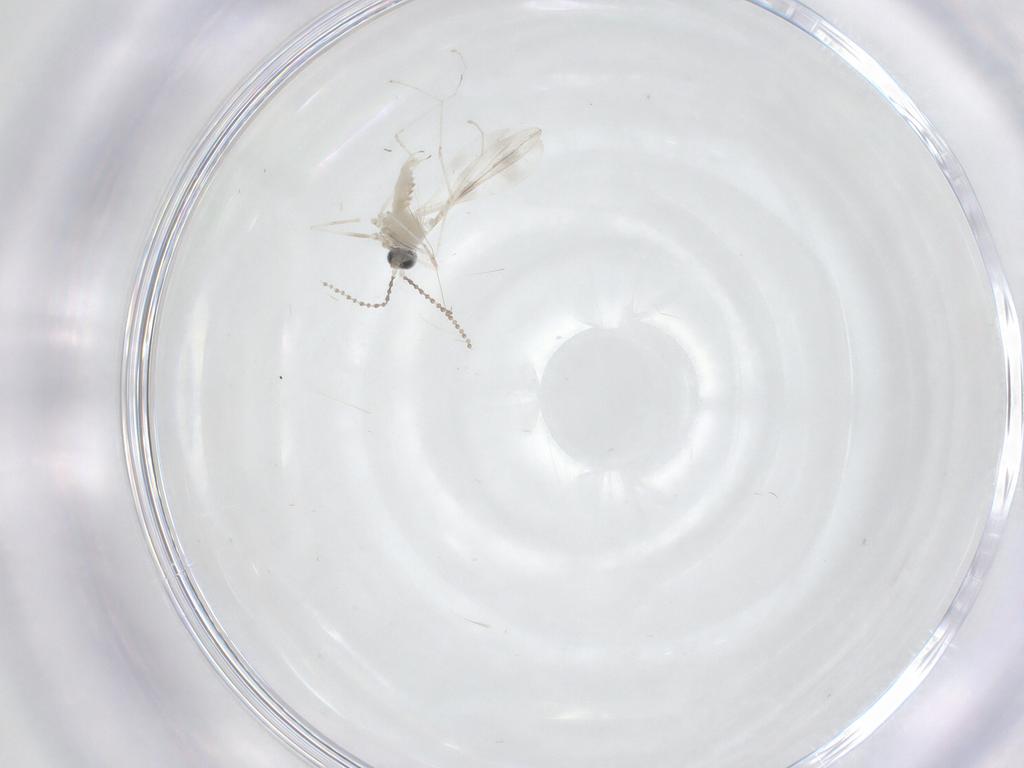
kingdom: Animalia
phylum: Arthropoda
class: Insecta
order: Diptera
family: Cecidomyiidae
